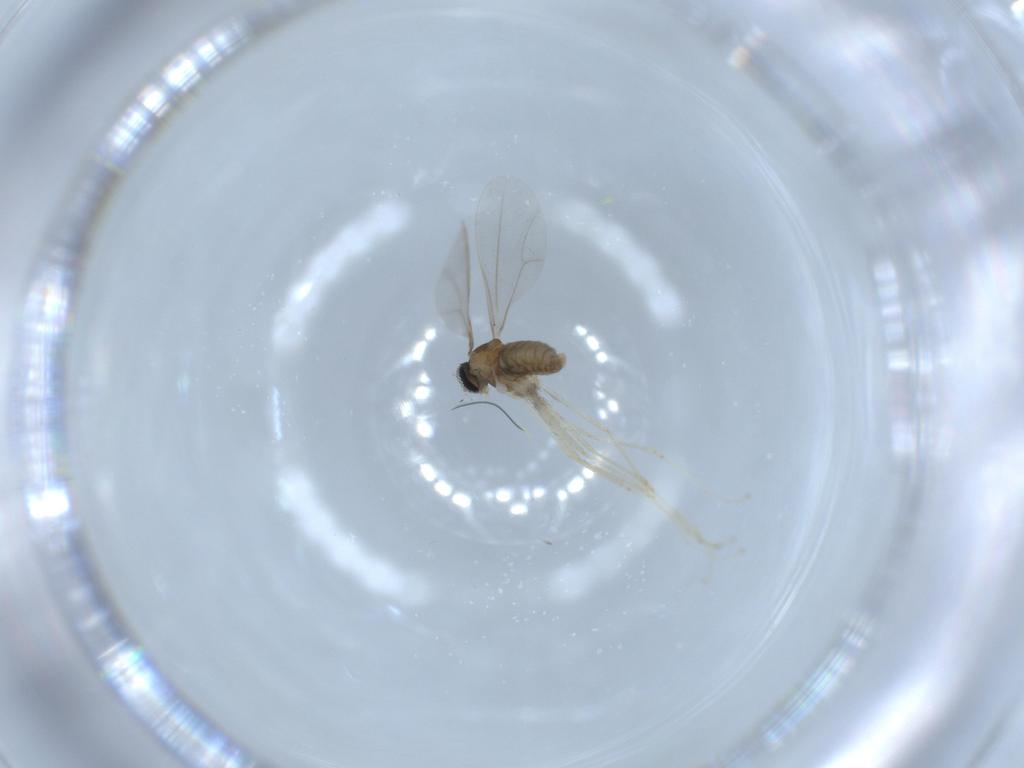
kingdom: Animalia
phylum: Arthropoda
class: Insecta
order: Diptera
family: Cecidomyiidae
